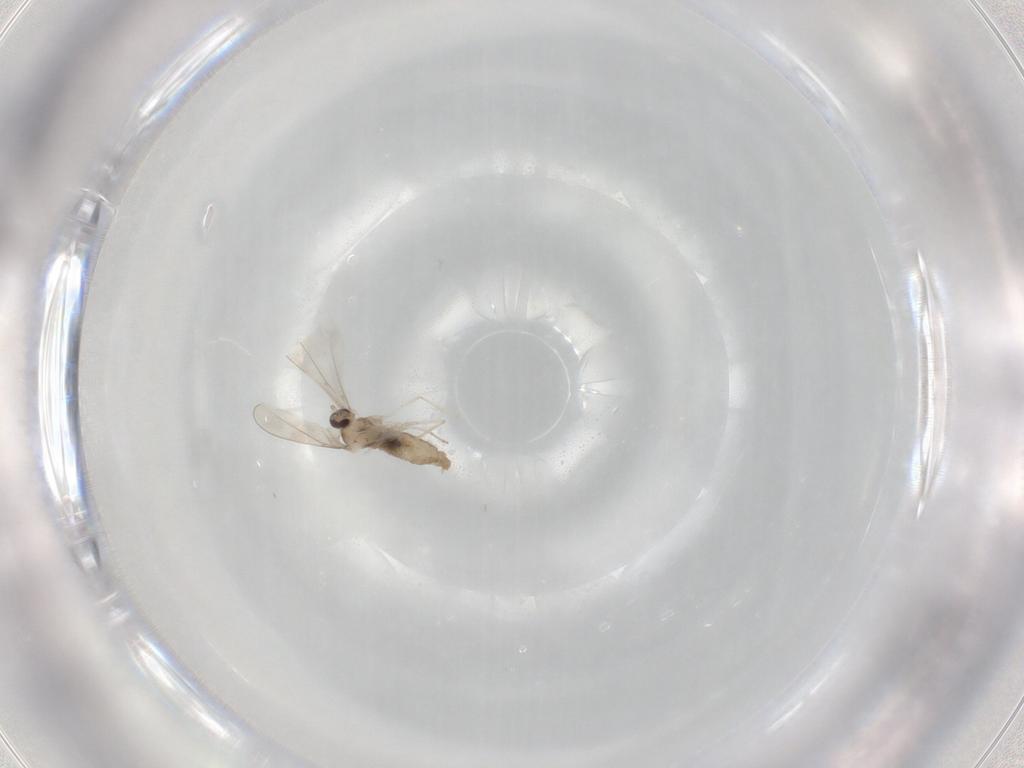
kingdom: Animalia
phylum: Arthropoda
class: Insecta
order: Diptera
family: Cecidomyiidae
